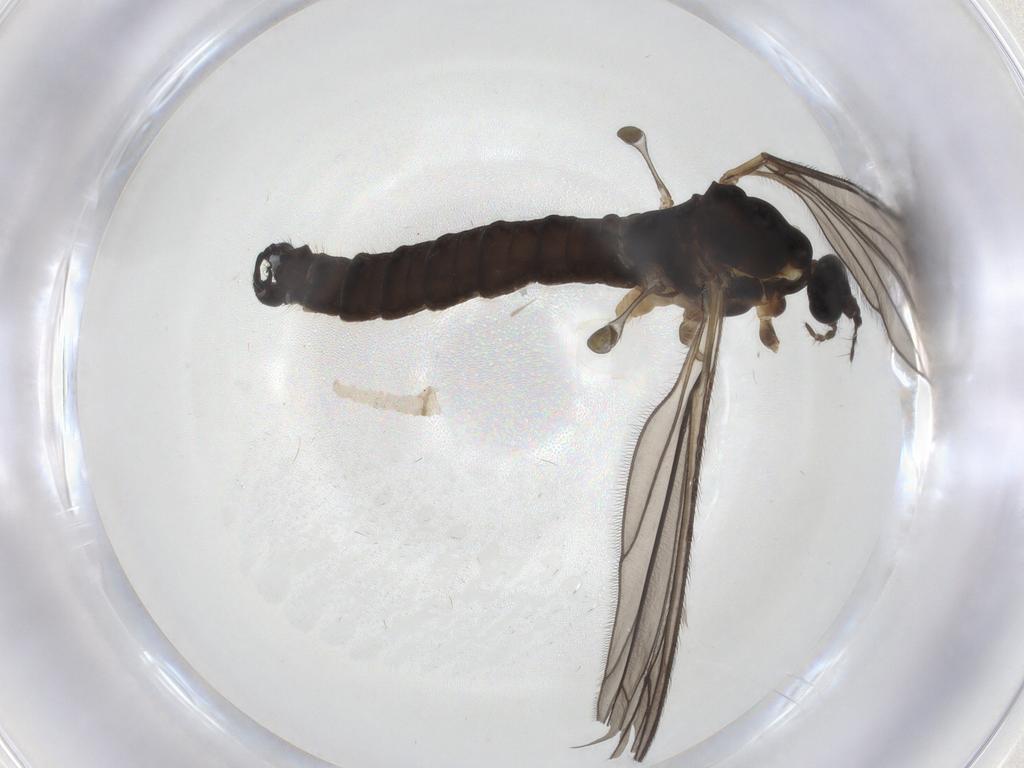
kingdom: Animalia
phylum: Arthropoda
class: Insecta
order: Diptera
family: Limoniidae
